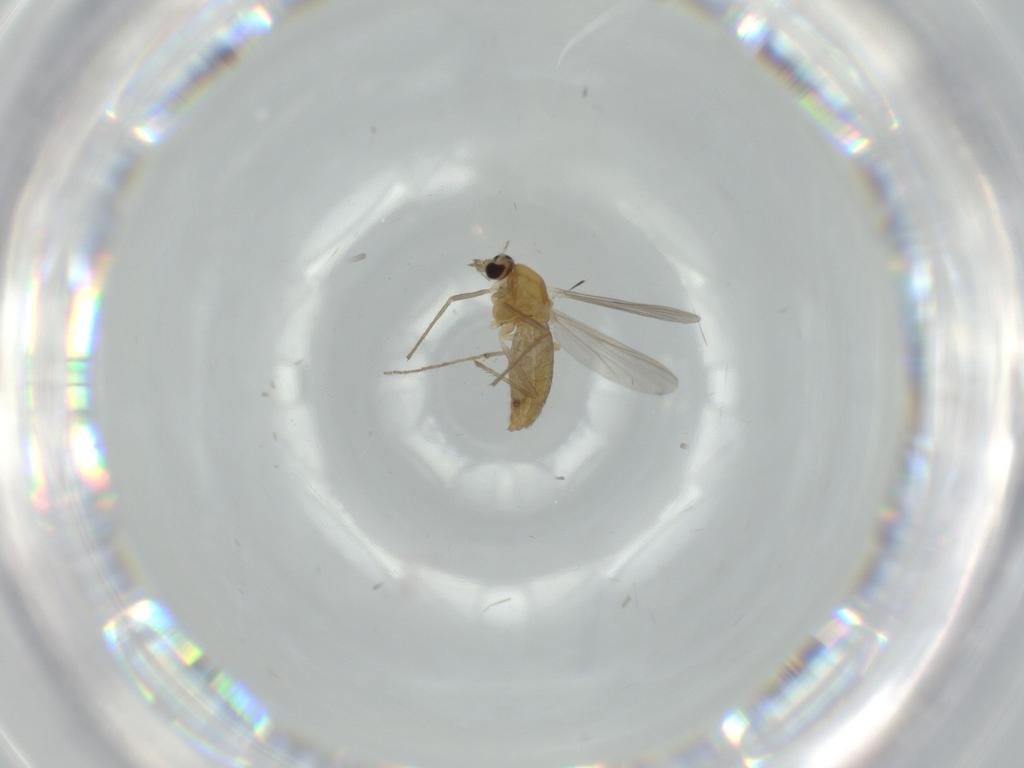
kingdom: Animalia
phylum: Arthropoda
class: Insecta
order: Diptera
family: Chironomidae
